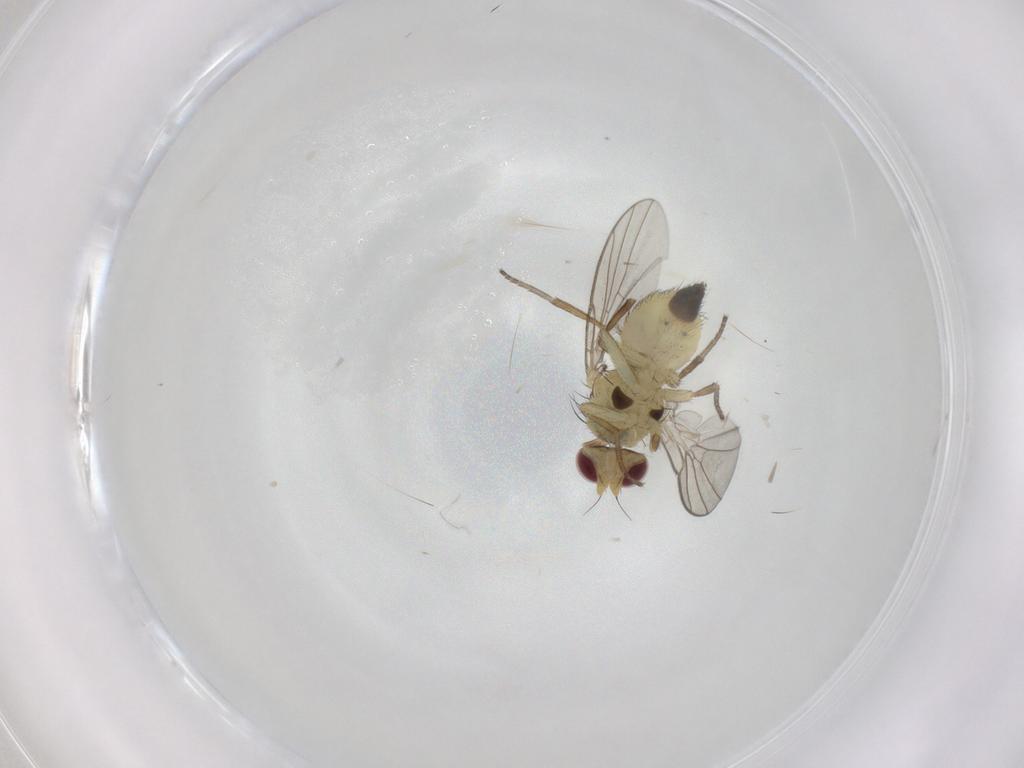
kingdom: Animalia
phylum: Arthropoda
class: Insecta
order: Diptera
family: Agromyzidae
